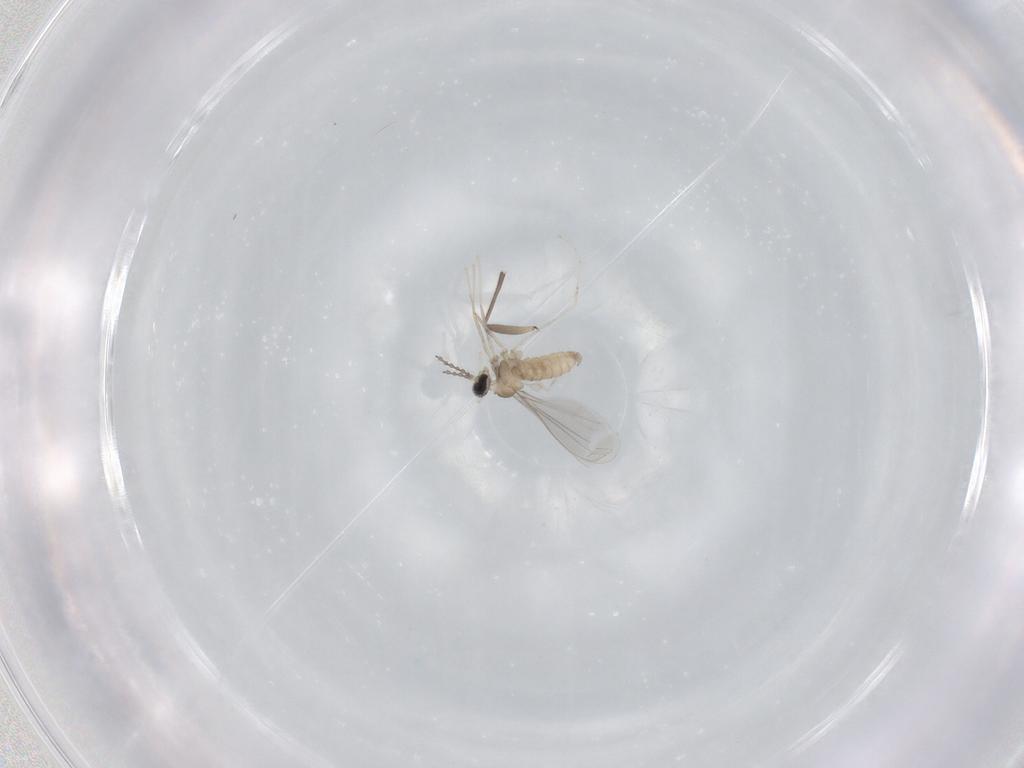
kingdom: Animalia
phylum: Arthropoda
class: Insecta
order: Diptera
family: Cecidomyiidae
